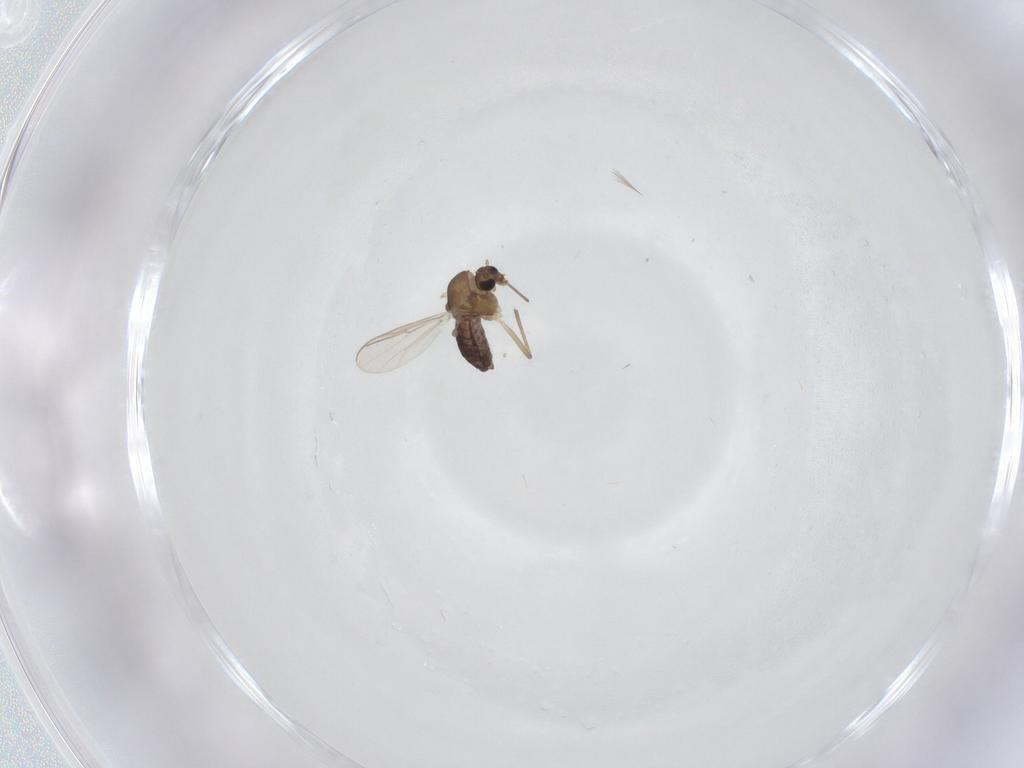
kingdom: Animalia
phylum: Arthropoda
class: Insecta
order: Diptera
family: Chironomidae
